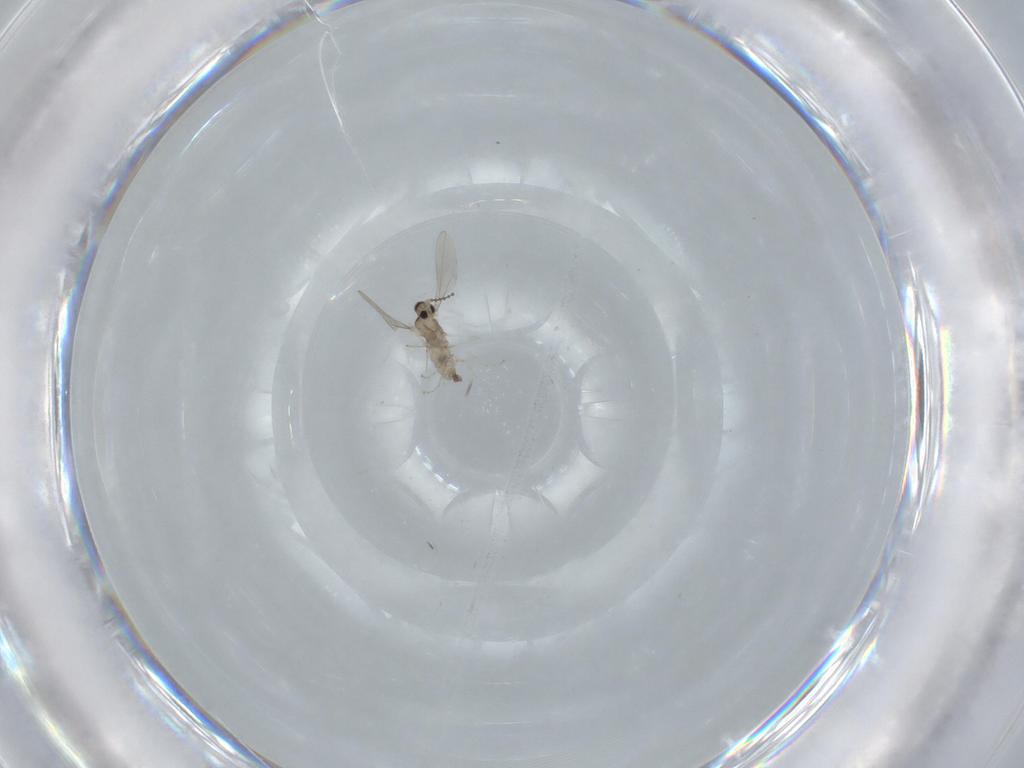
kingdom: Animalia
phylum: Arthropoda
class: Insecta
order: Diptera
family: Cecidomyiidae
